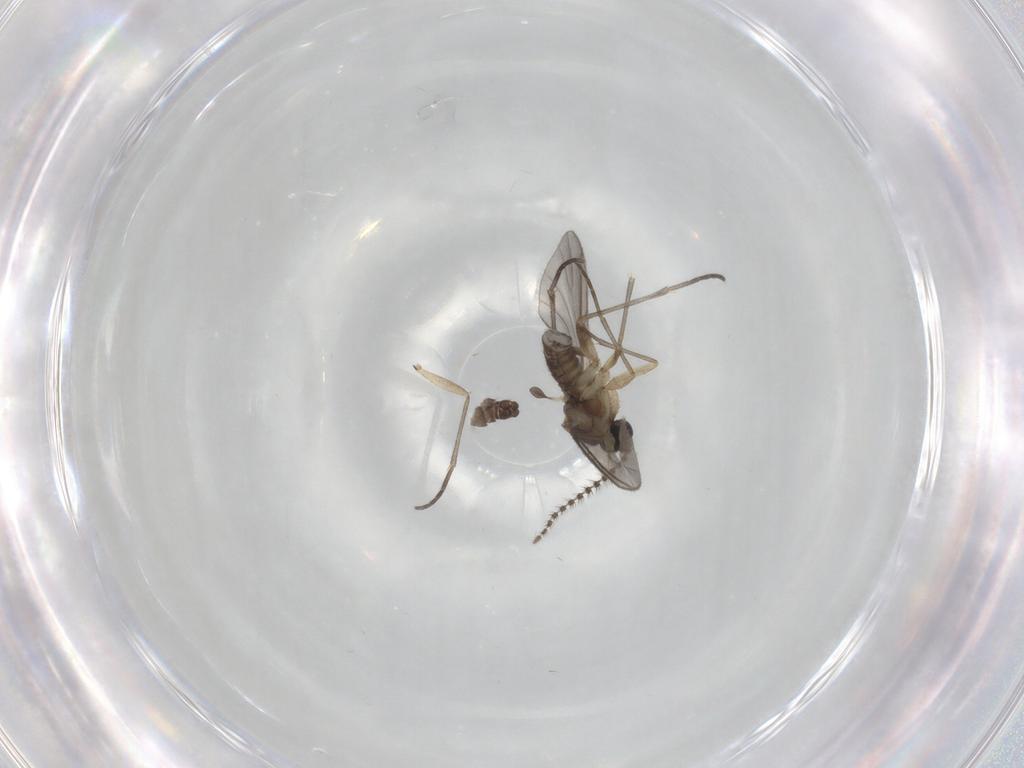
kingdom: Animalia
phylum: Arthropoda
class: Insecta
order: Diptera
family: Sciaridae
